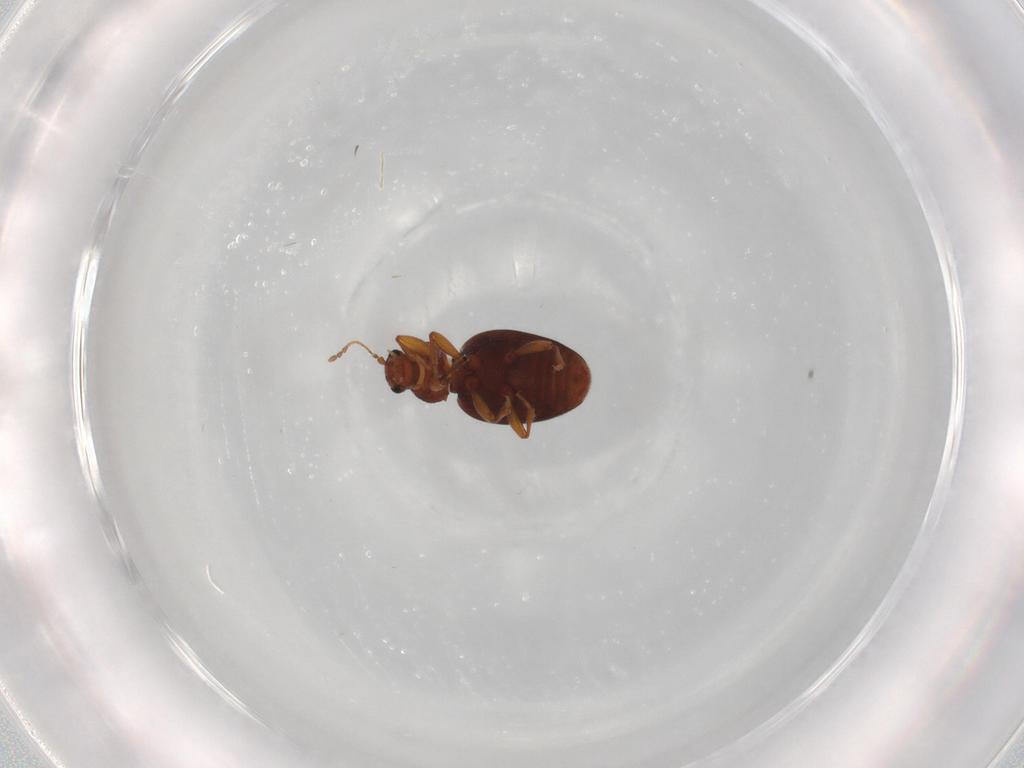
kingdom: Animalia
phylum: Arthropoda
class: Insecta
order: Coleoptera
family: Latridiidae
